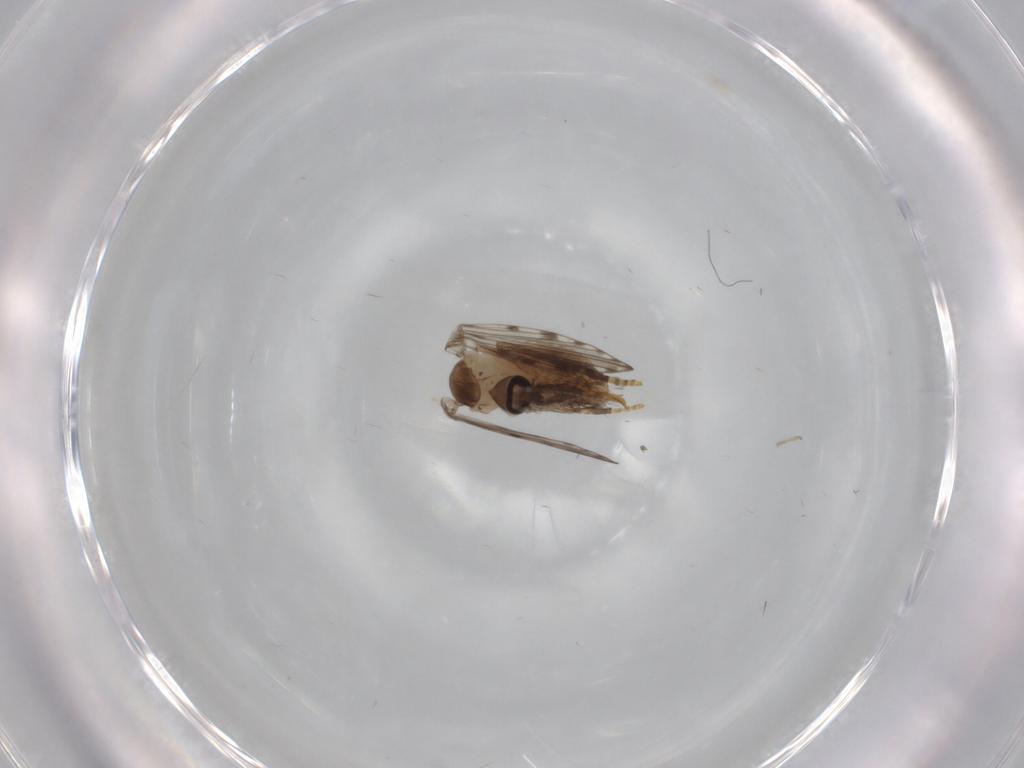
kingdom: Animalia
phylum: Arthropoda
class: Insecta
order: Diptera
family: Psychodidae
